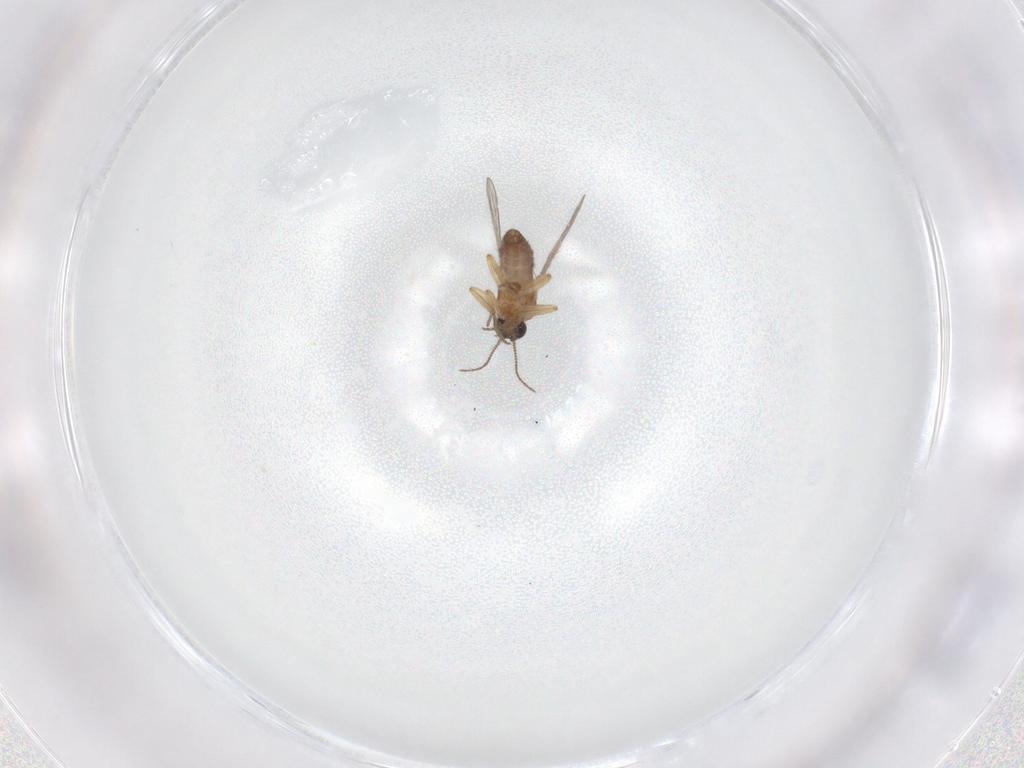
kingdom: Animalia
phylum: Arthropoda
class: Insecta
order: Diptera
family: Ceratopogonidae
